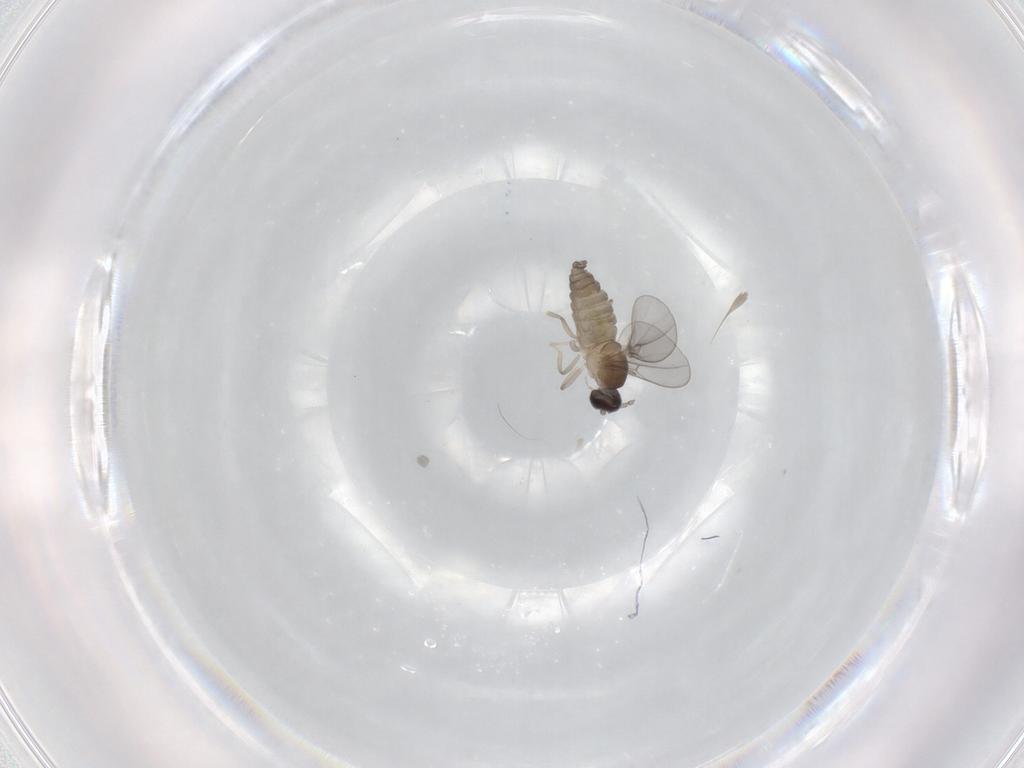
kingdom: Animalia
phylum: Arthropoda
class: Insecta
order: Diptera
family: Cecidomyiidae
